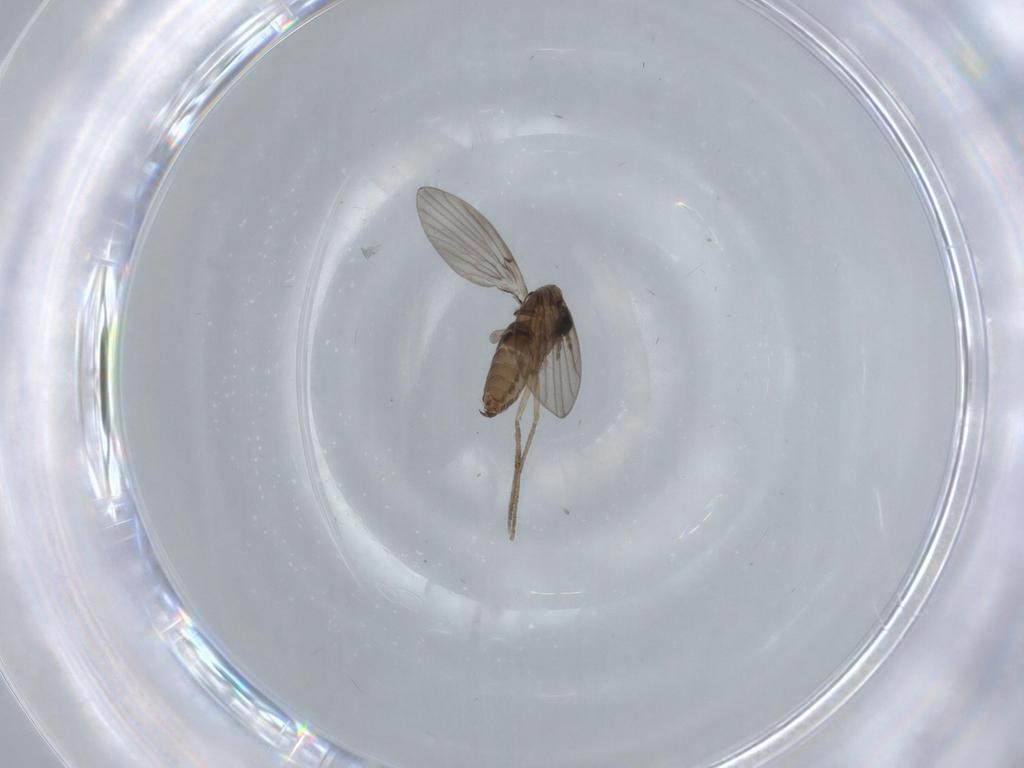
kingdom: Animalia
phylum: Arthropoda
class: Insecta
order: Diptera
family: Psychodidae
